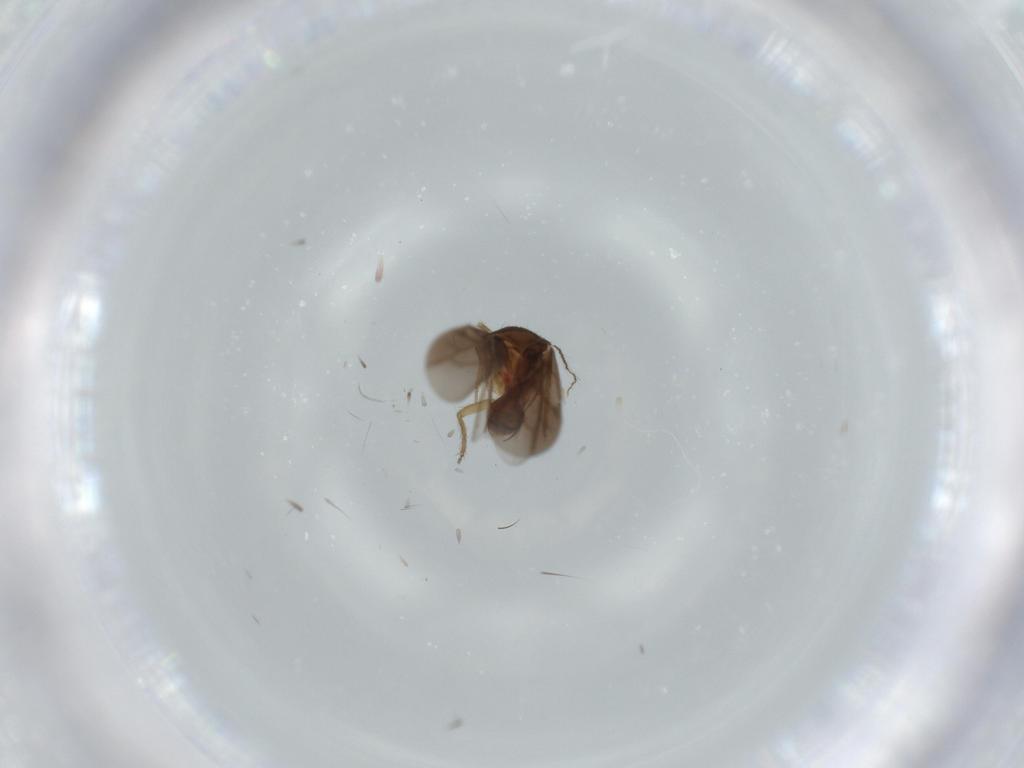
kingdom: Animalia
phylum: Arthropoda
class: Insecta
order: Hemiptera
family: Ceratocombidae
